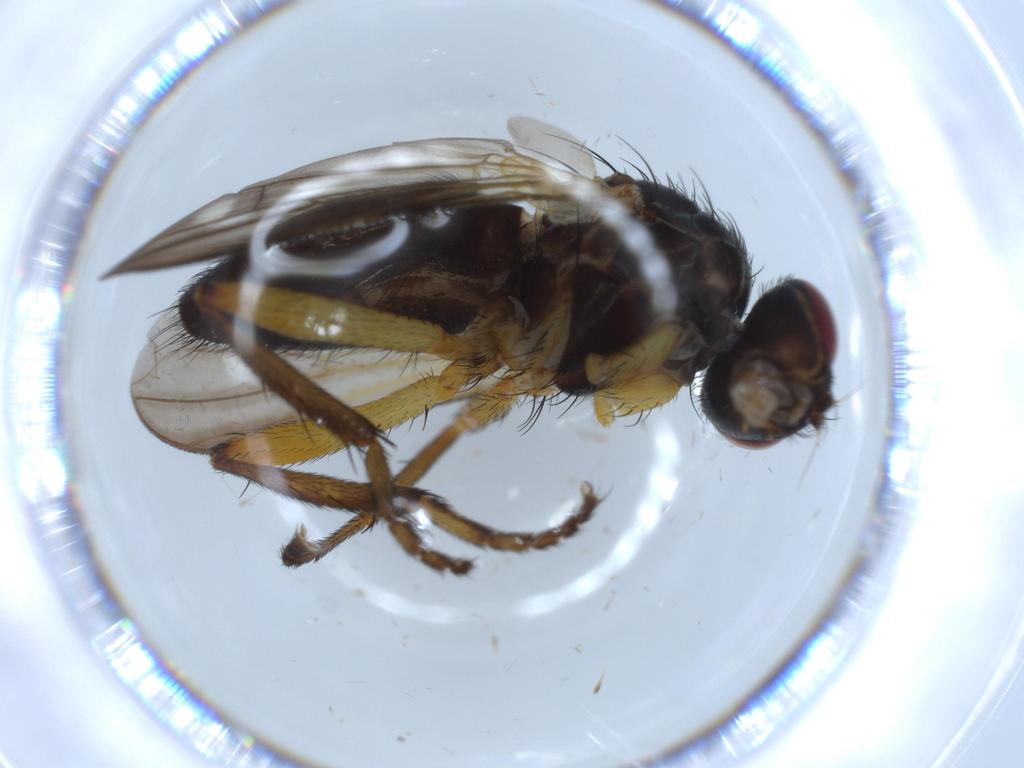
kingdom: Animalia
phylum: Arthropoda
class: Insecta
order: Diptera
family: Calliphoridae
